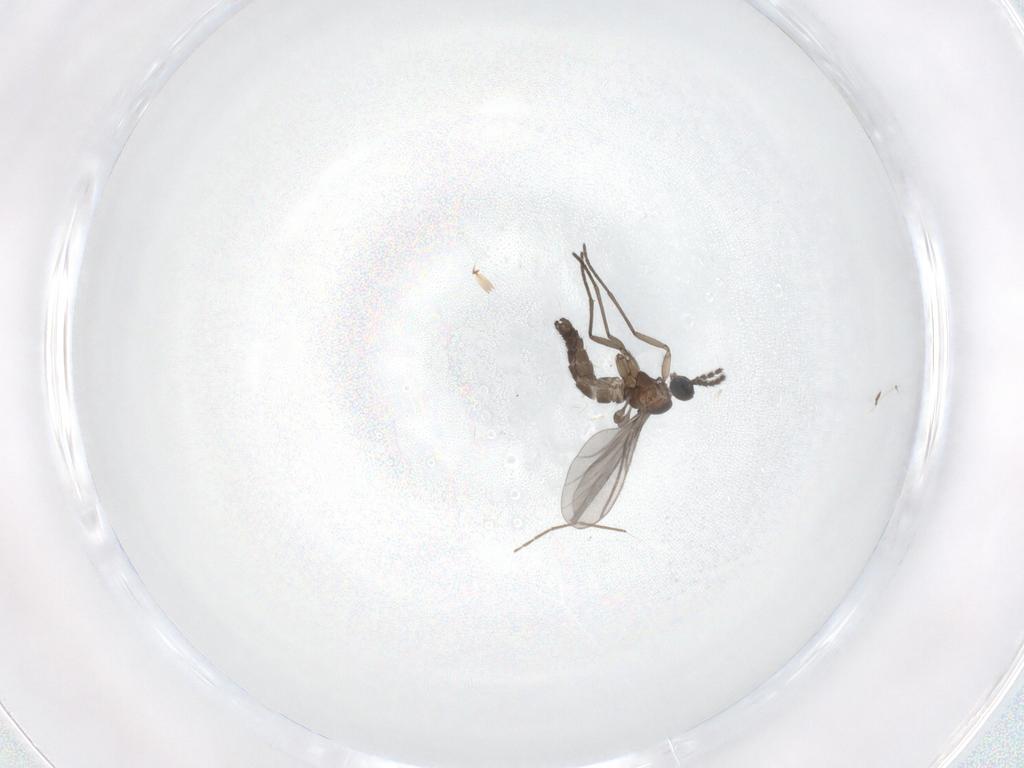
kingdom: Animalia
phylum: Arthropoda
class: Insecta
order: Diptera
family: Chironomidae
